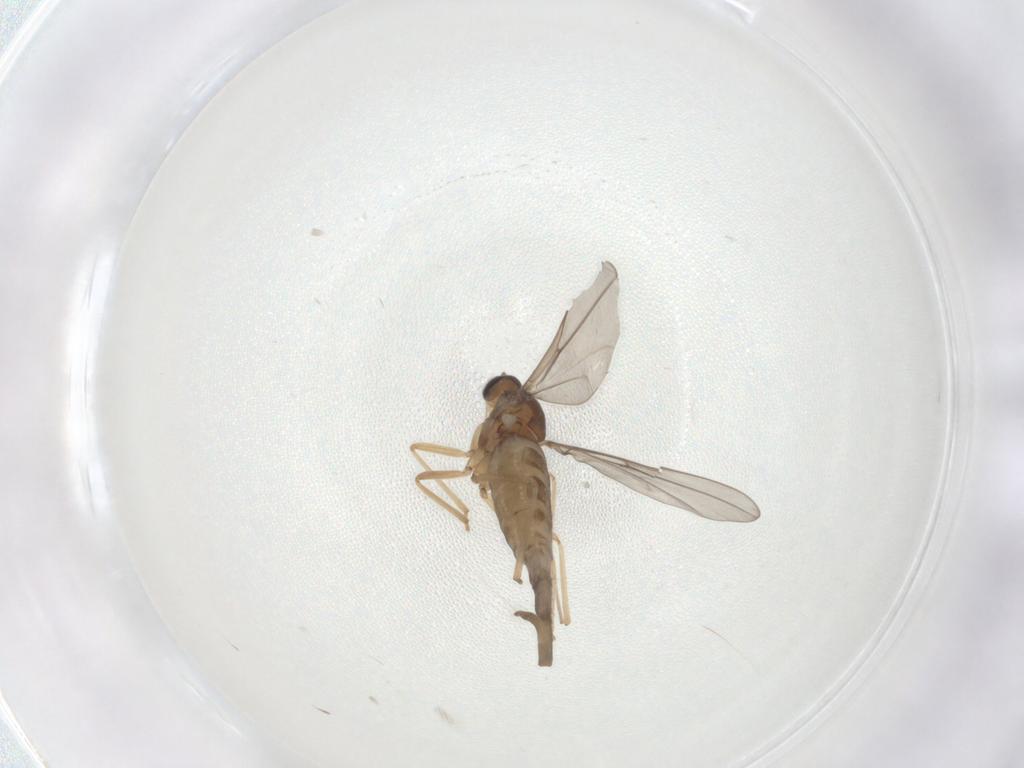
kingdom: Animalia
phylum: Arthropoda
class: Insecta
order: Diptera
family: Cecidomyiidae
